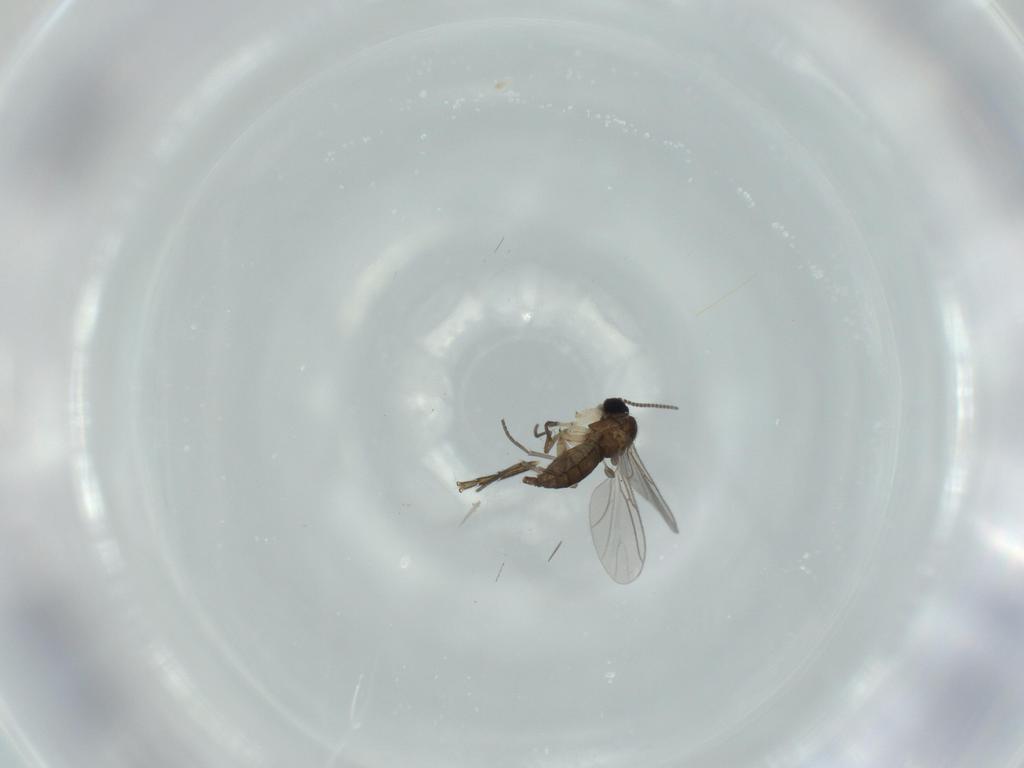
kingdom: Animalia
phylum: Arthropoda
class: Insecta
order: Diptera
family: Sciaridae
